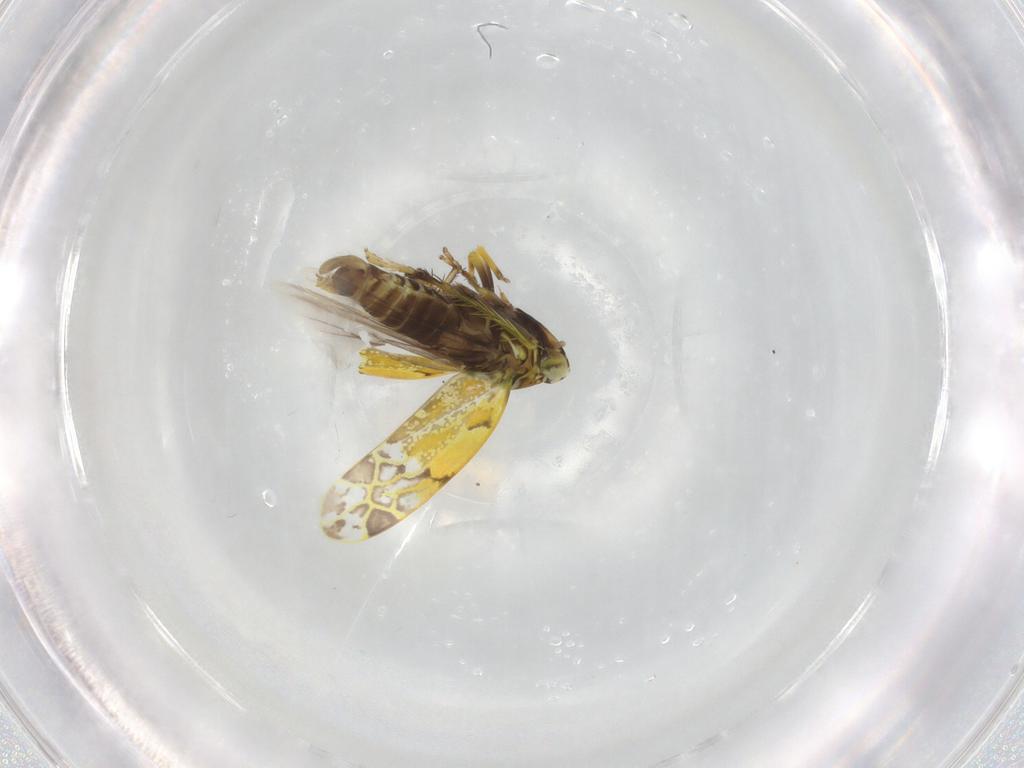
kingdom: Animalia
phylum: Arthropoda
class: Insecta
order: Hemiptera
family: Cicadellidae
